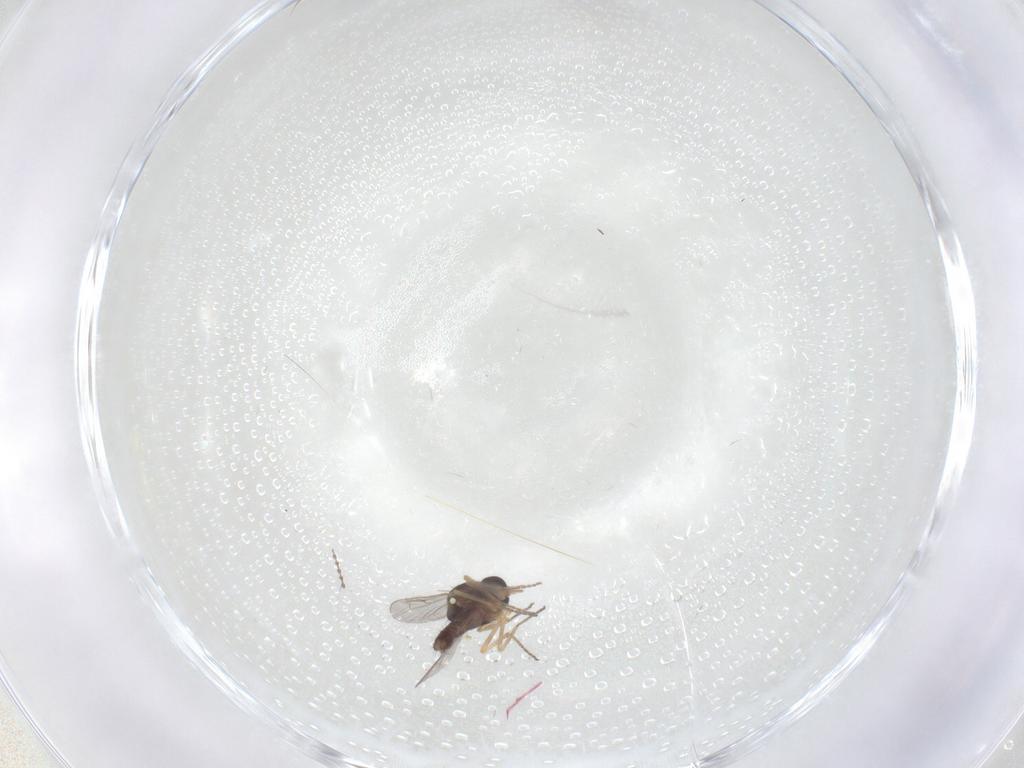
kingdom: Animalia
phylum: Arthropoda
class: Insecta
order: Diptera
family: Ceratopogonidae
